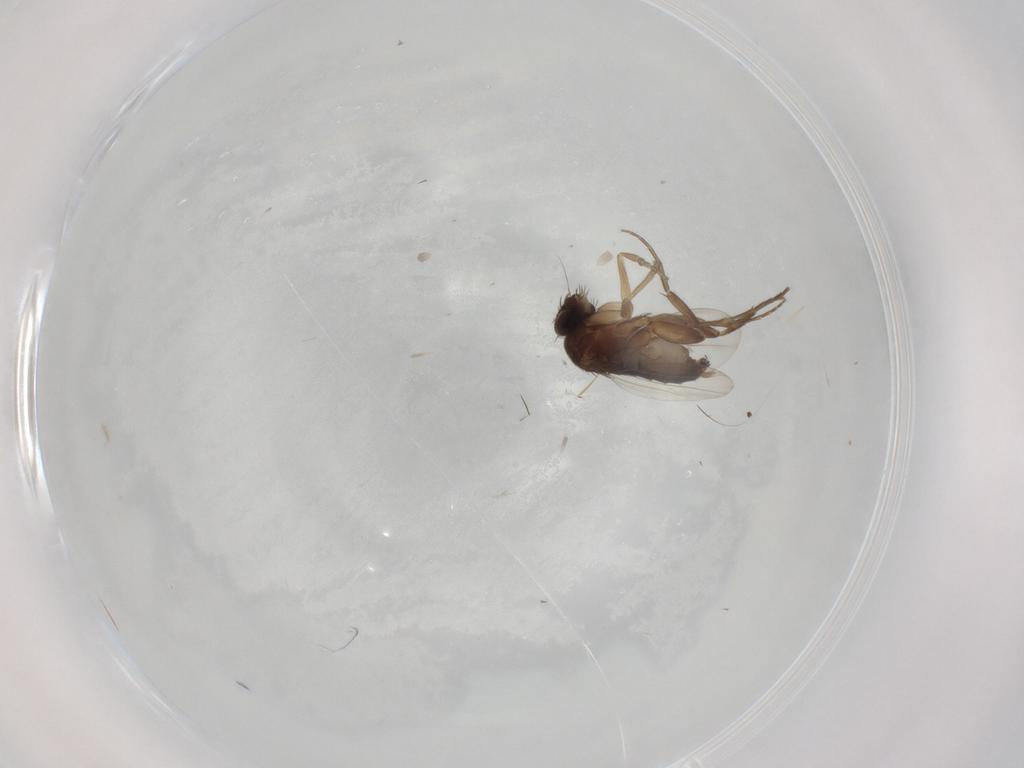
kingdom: Animalia
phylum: Arthropoda
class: Insecta
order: Diptera
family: Phoridae
